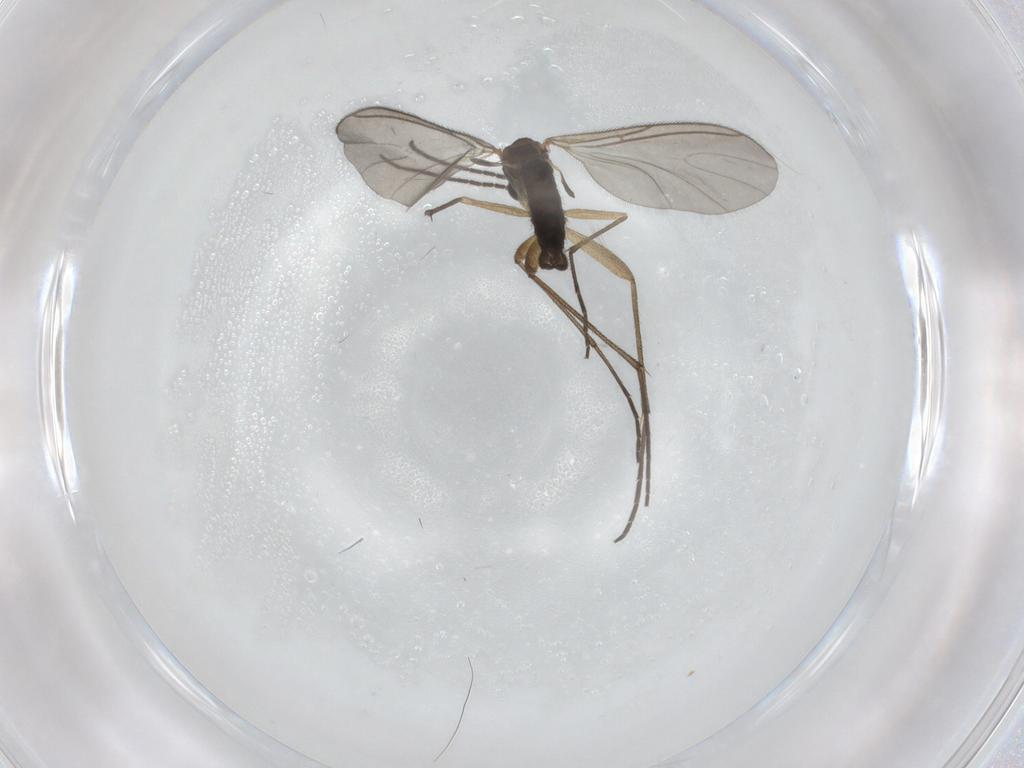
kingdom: Animalia
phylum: Arthropoda
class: Insecta
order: Diptera
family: Sciaridae
